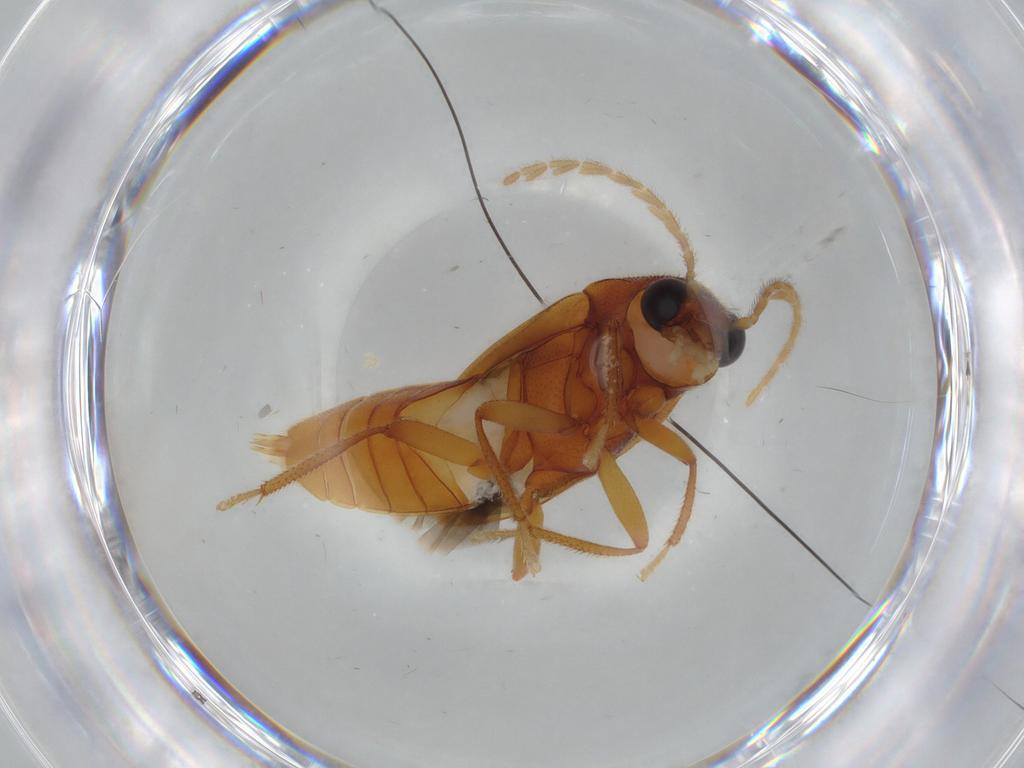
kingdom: Animalia
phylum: Arthropoda
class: Insecta
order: Coleoptera
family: Ptilodactylidae
